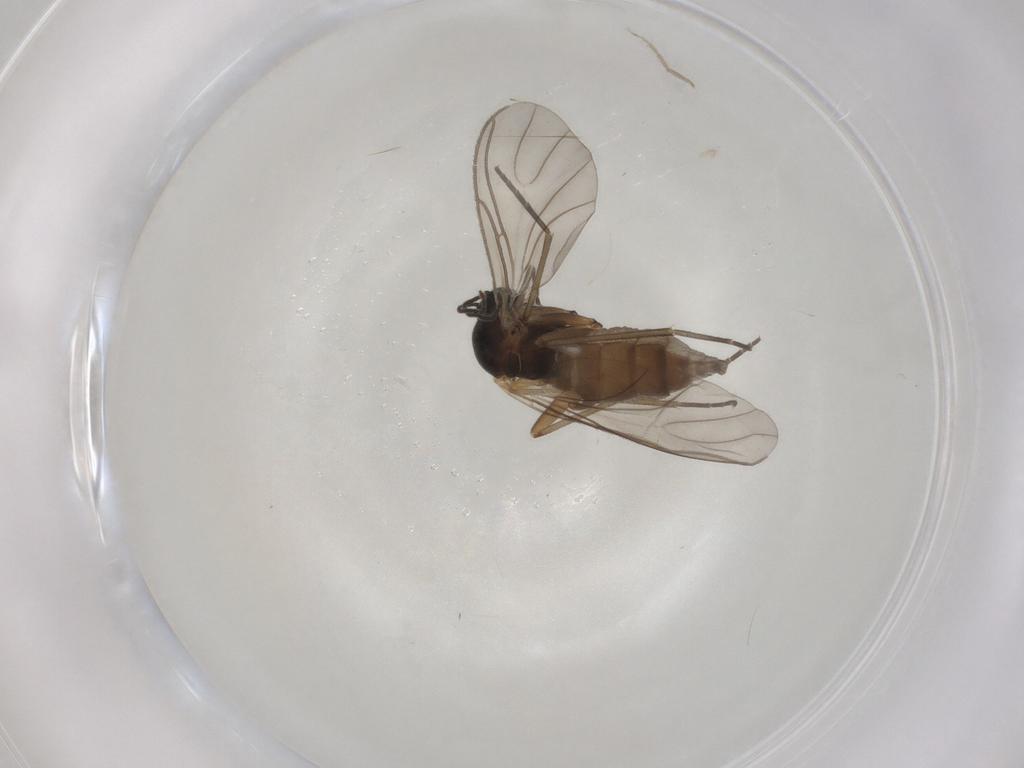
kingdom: Animalia
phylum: Arthropoda
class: Insecta
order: Diptera
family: Sciaridae
